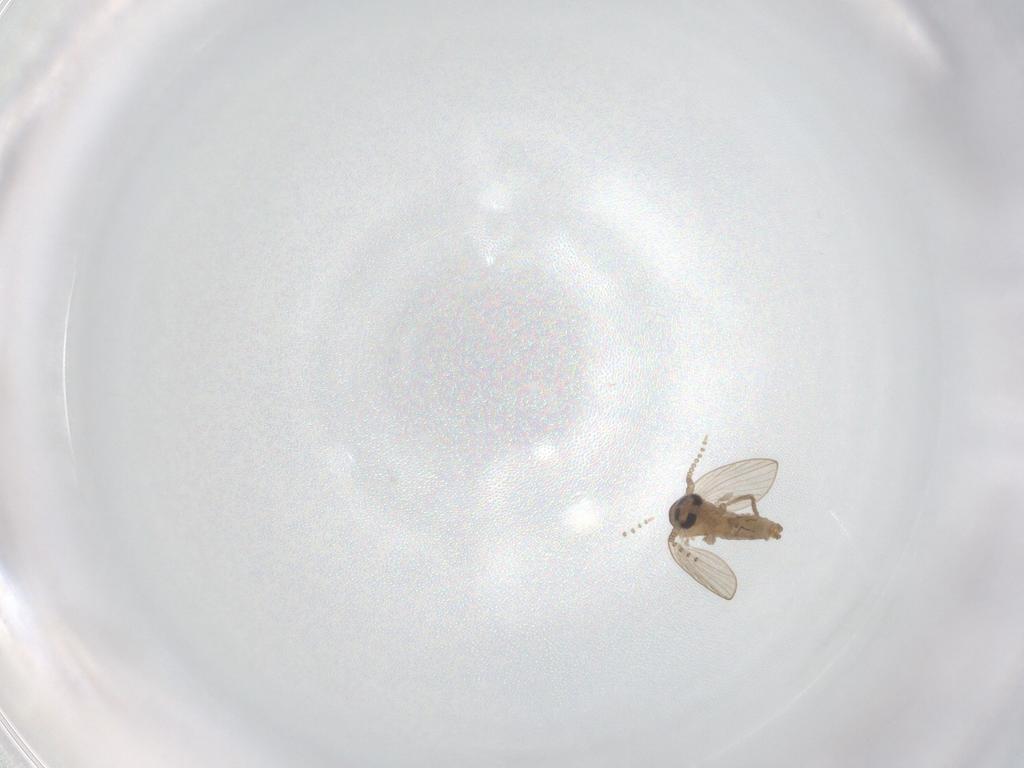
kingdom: Animalia
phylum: Arthropoda
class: Insecta
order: Diptera
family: Psychodidae
